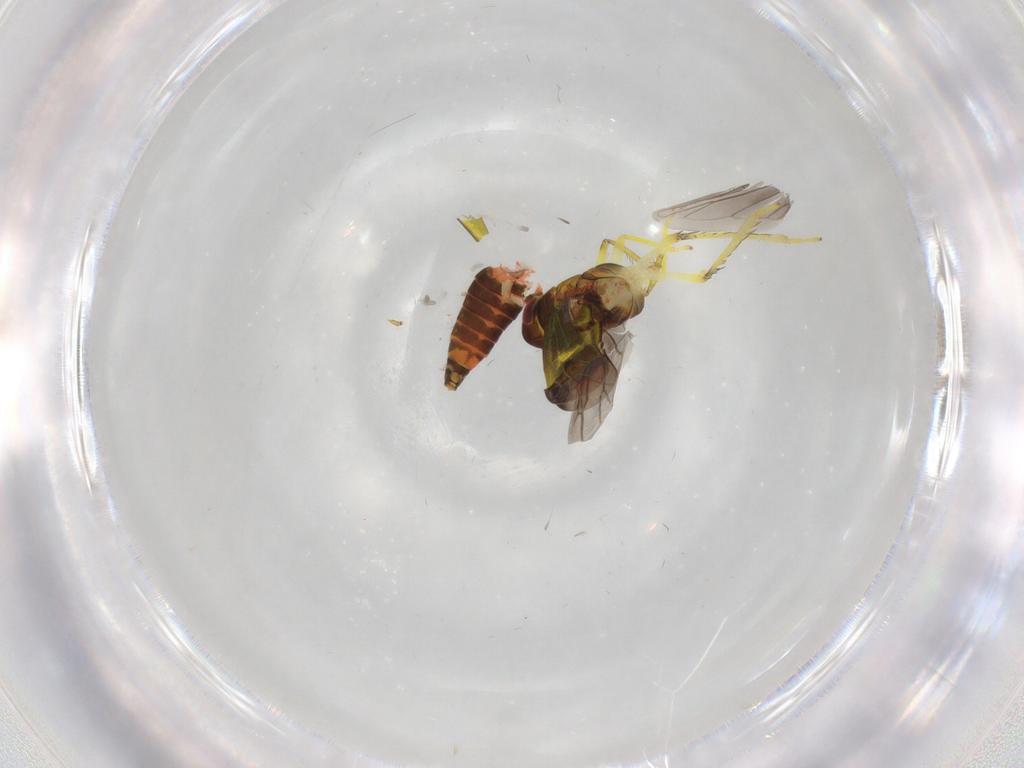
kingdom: Animalia
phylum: Arthropoda
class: Insecta
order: Hemiptera
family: Cicadellidae
